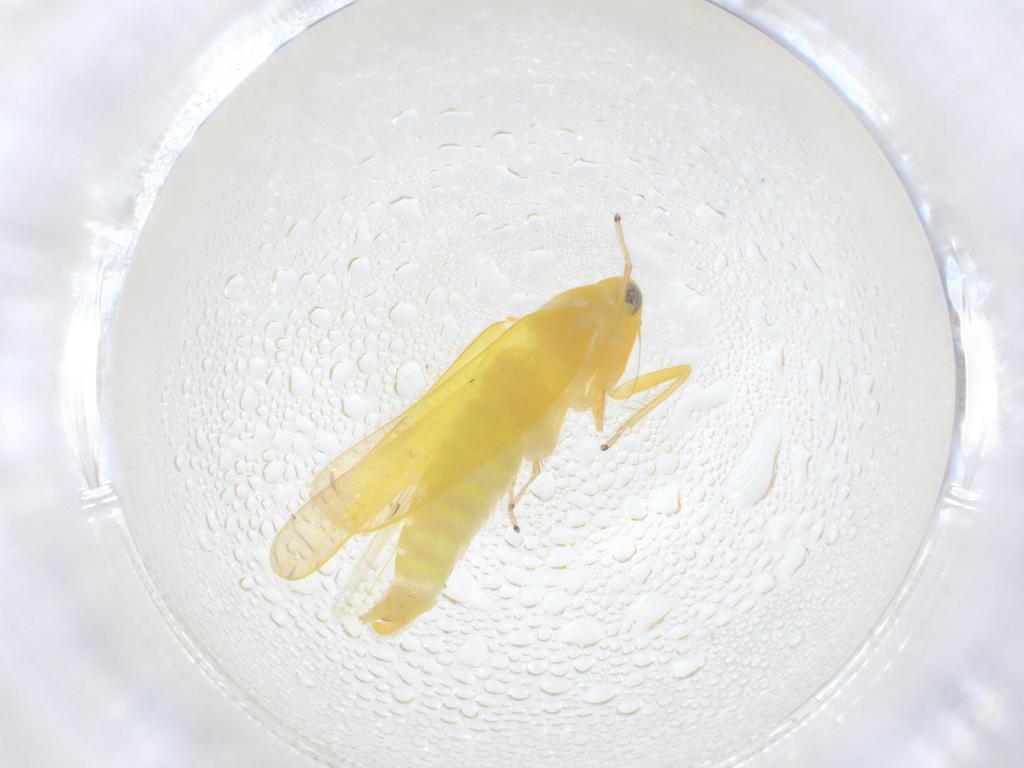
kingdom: Animalia
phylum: Arthropoda
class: Insecta
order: Hemiptera
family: Cicadellidae
